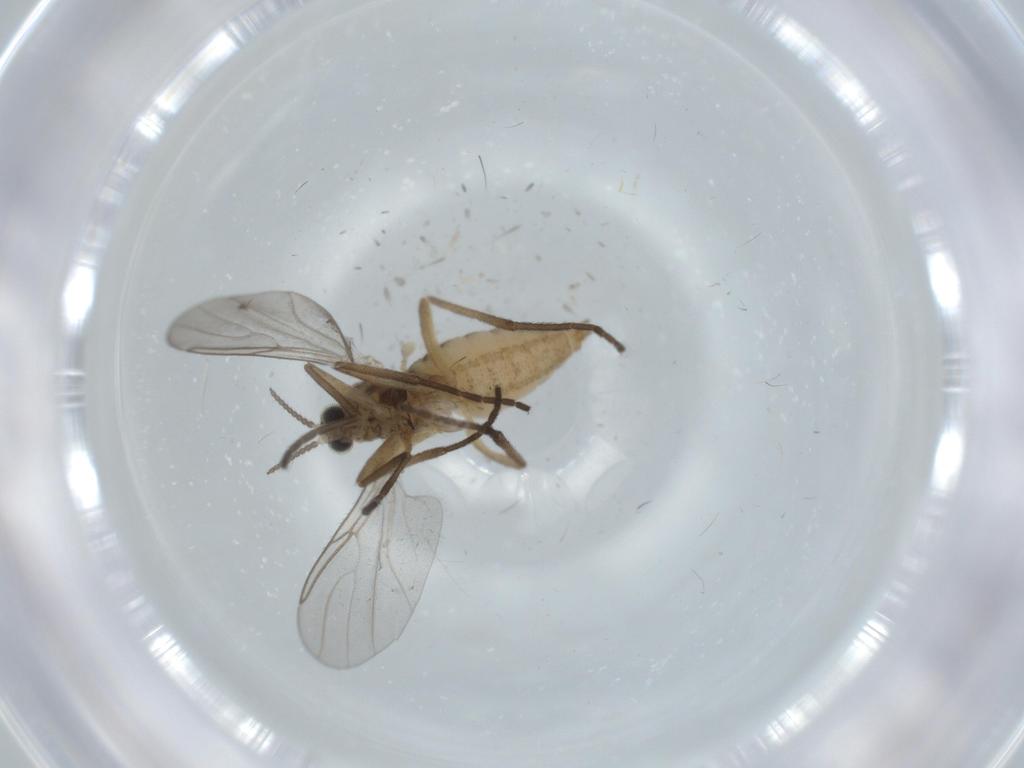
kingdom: Animalia
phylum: Arthropoda
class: Insecta
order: Diptera
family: Cecidomyiidae
